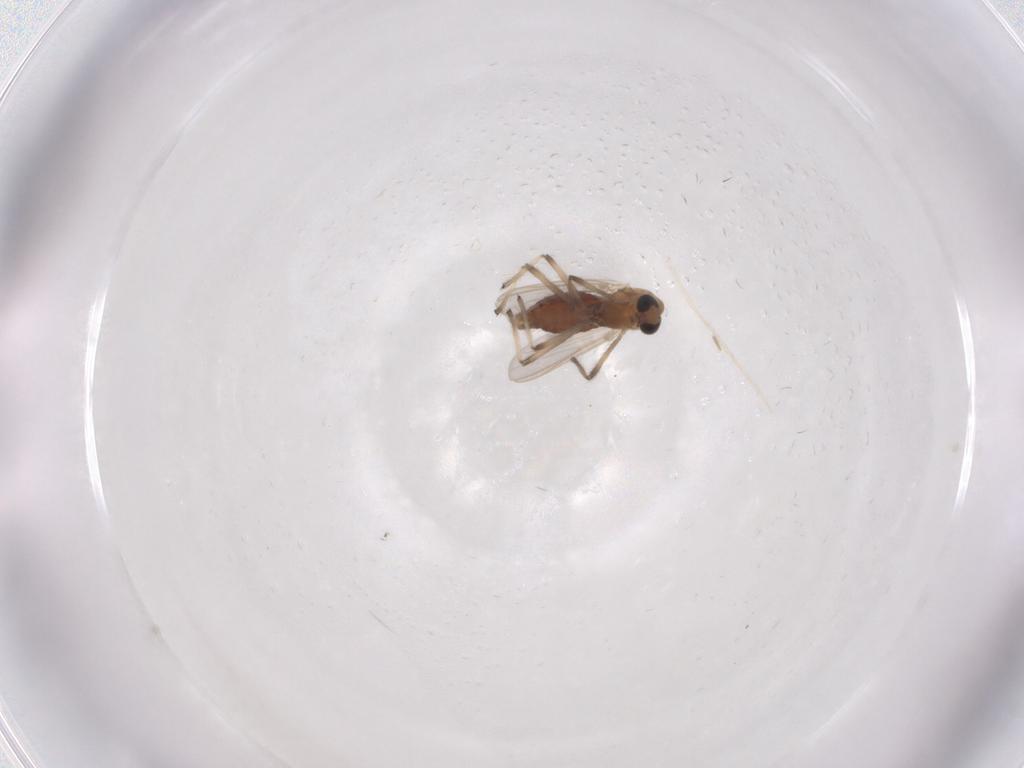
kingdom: Animalia
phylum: Arthropoda
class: Insecta
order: Diptera
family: Chironomidae
